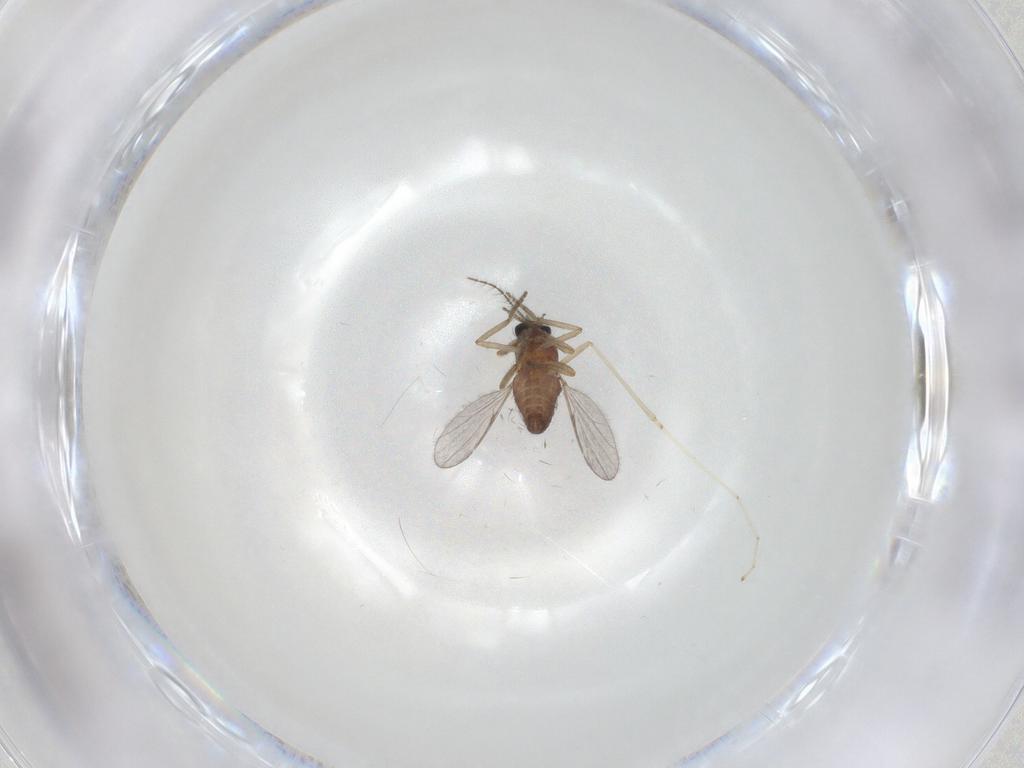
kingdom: Animalia
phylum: Arthropoda
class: Insecta
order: Diptera
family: Ceratopogonidae
